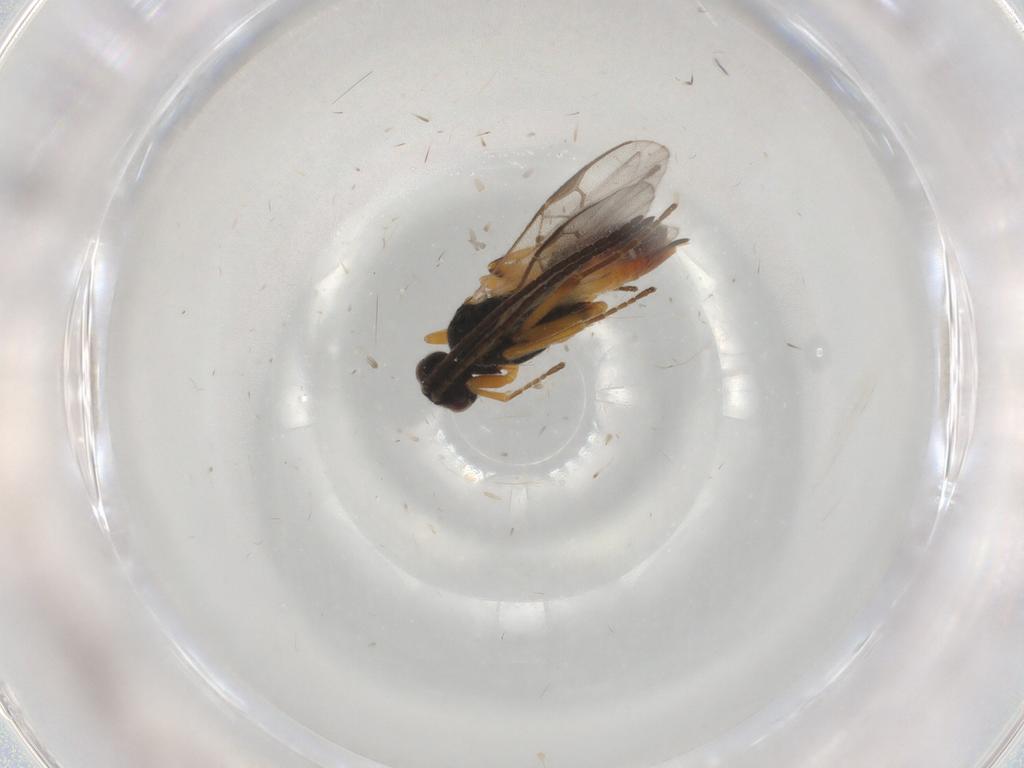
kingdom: Animalia
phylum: Arthropoda
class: Insecta
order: Hymenoptera
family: Braconidae
